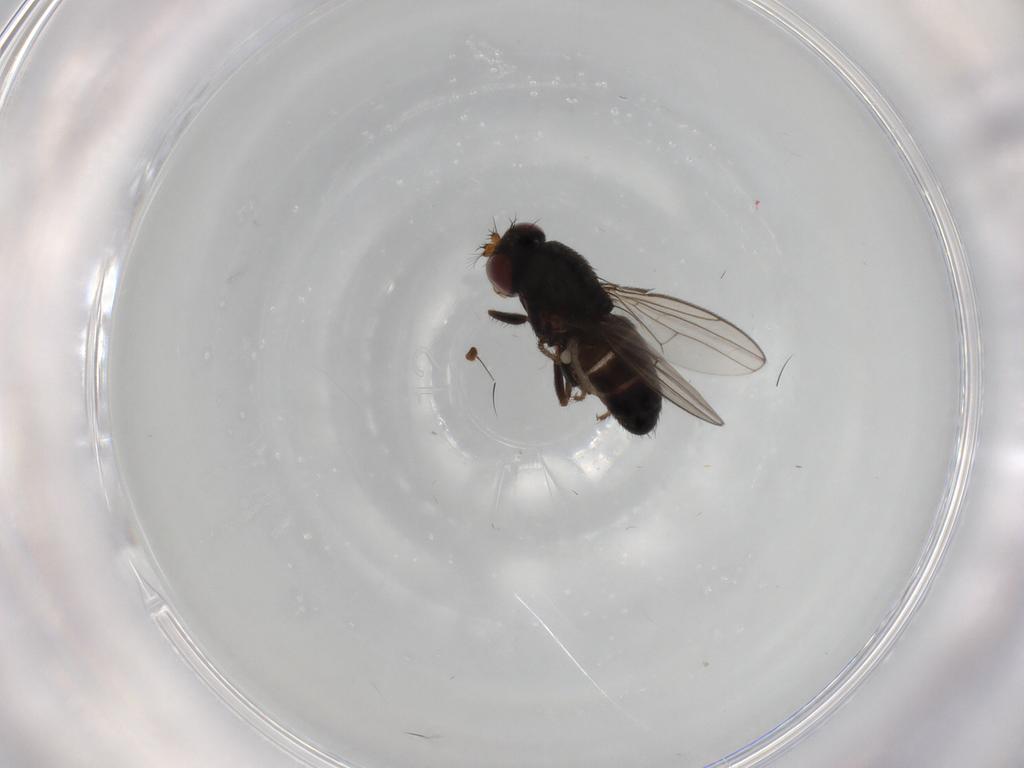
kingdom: Animalia
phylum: Arthropoda
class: Insecta
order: Diptera
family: Dolichopodidae
